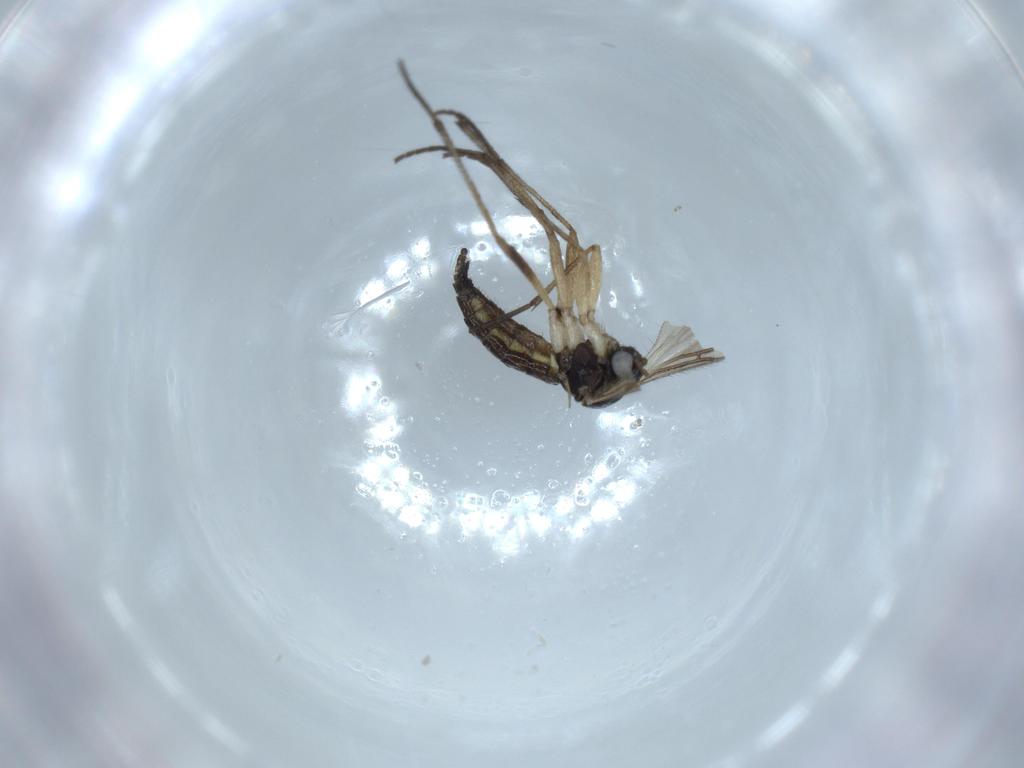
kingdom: Animalia
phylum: Arthropoda
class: Insecta
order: Diptera
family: Sciaridae
